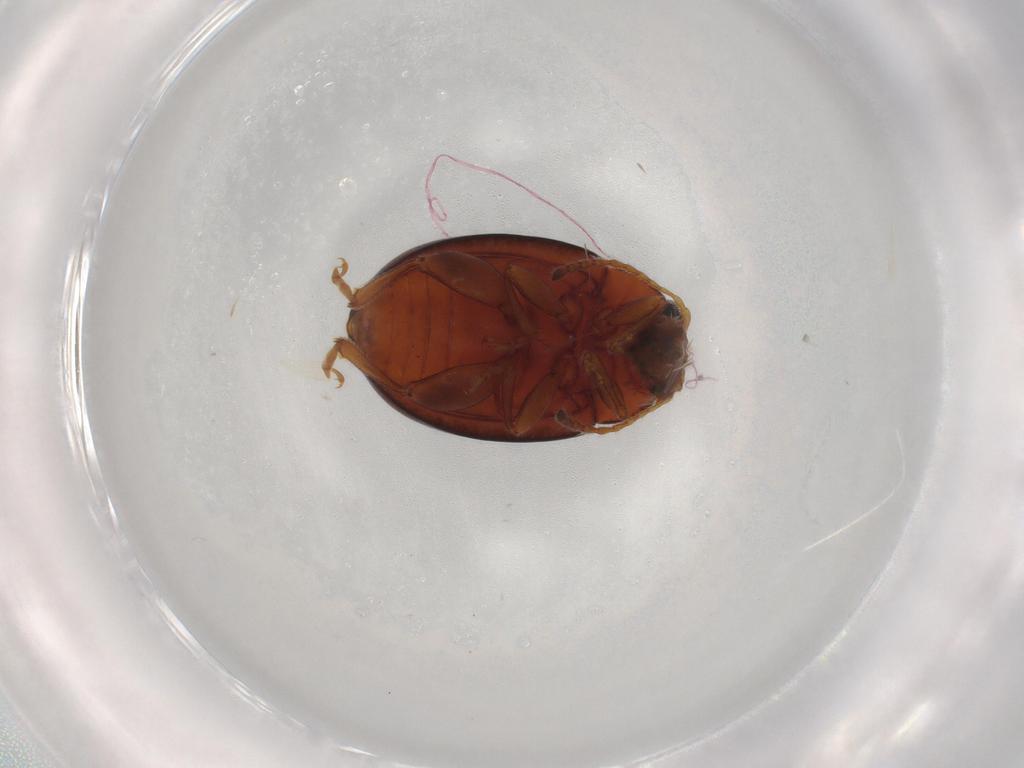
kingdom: Animalia
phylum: Arthropoda
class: Insecta
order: Coleoptera
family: Chrysomelidae
